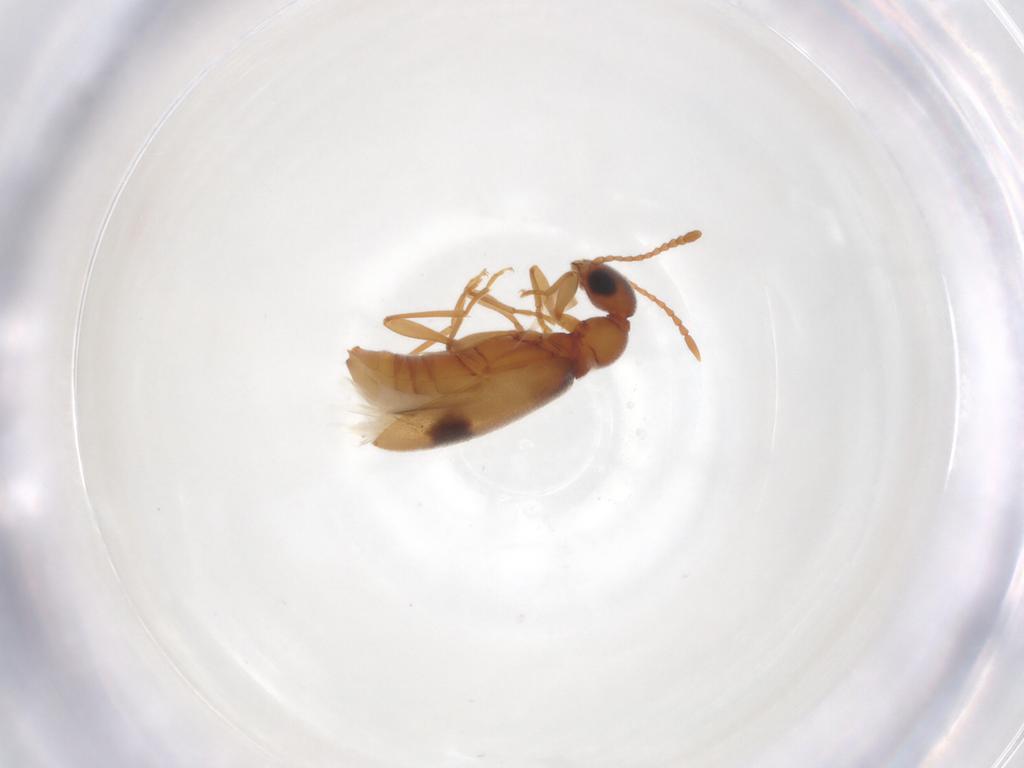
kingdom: Animalia
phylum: Arthropoda
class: Insecta
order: Coleoptera
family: Anthicidae
